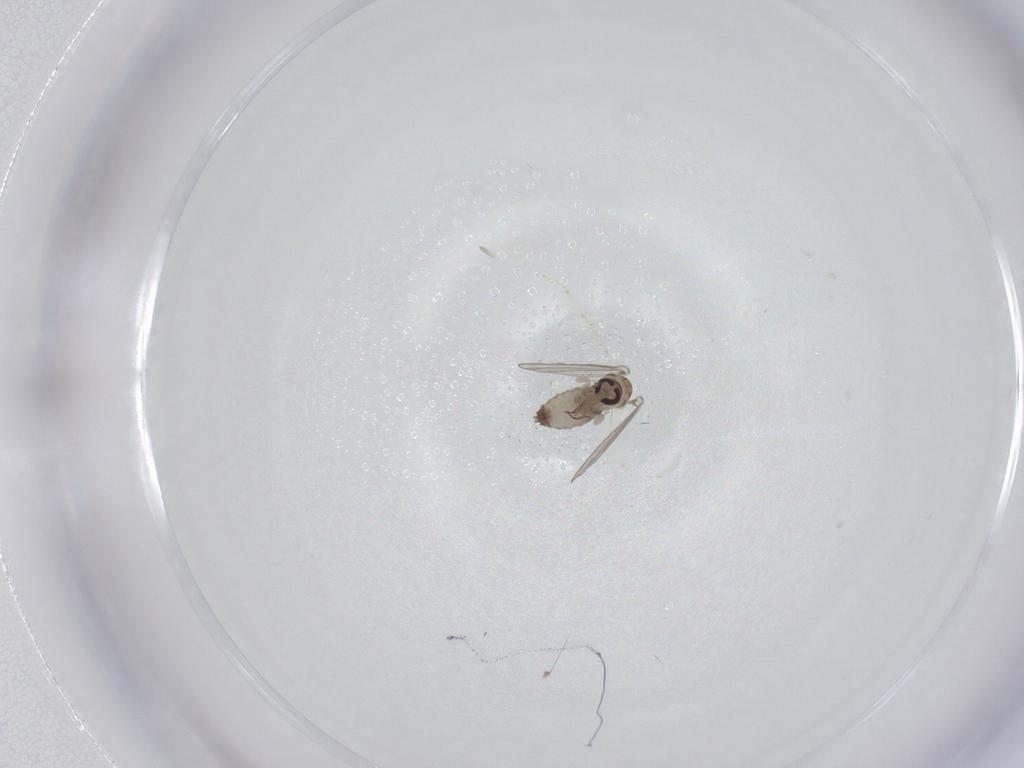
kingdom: Animalia
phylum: Arthropoda
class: Insecta
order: Diptera
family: Psychodidae
